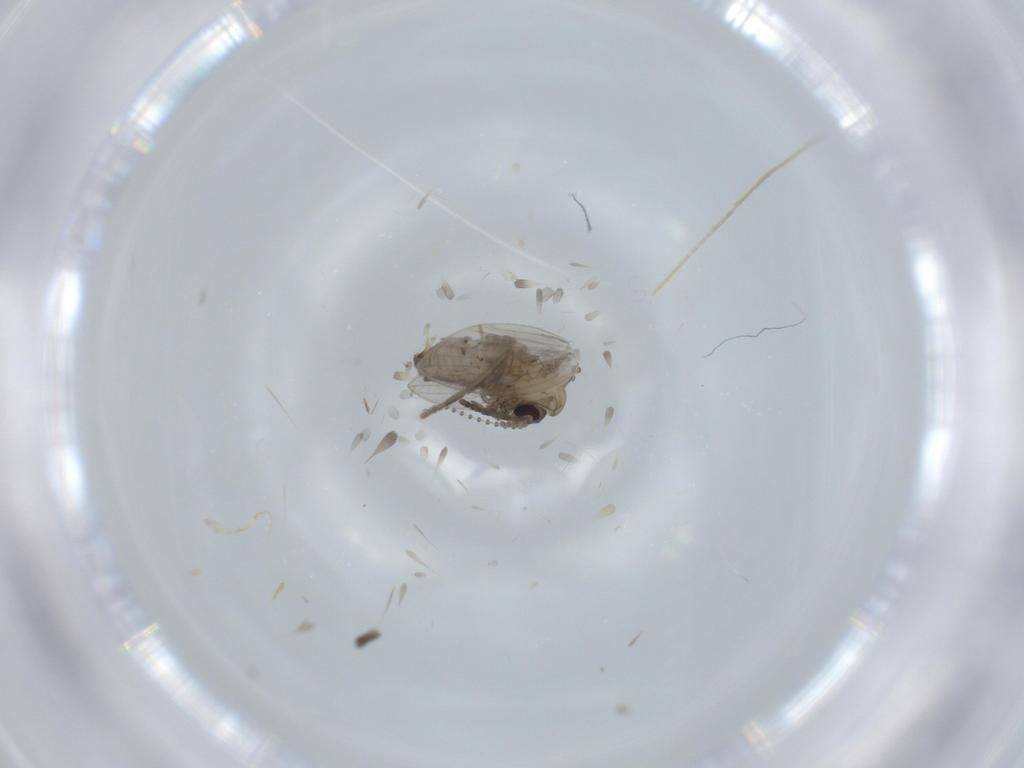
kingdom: Animalia
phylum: Arthropoda
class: Insecta
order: Diptera
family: Psychodidae
